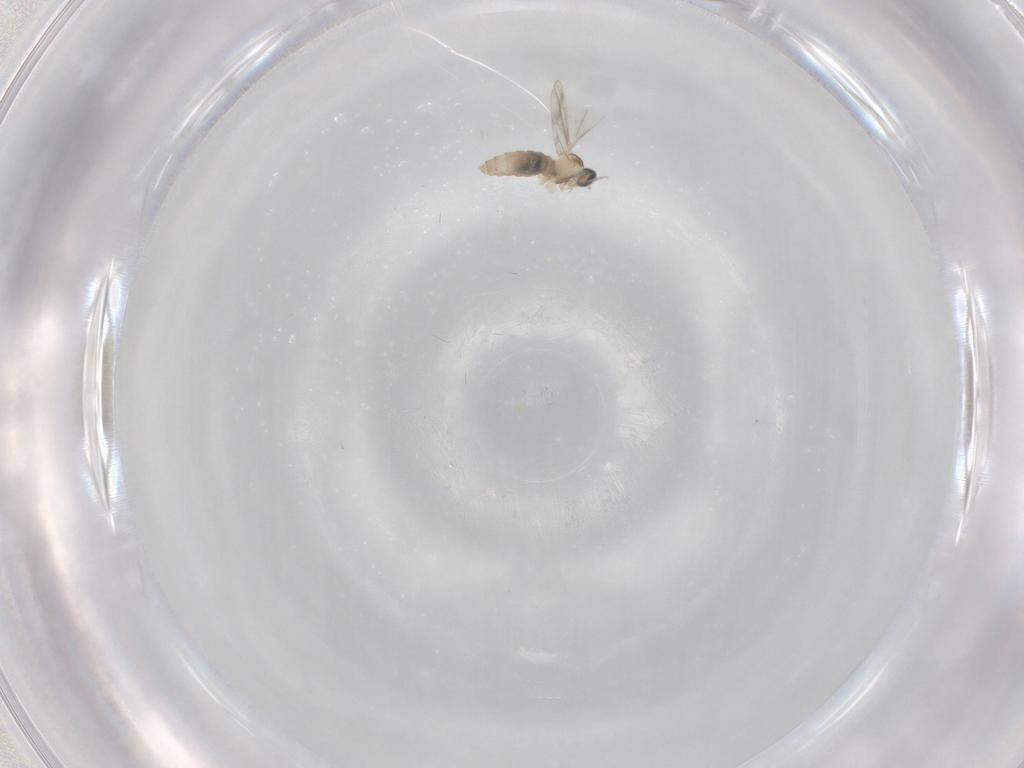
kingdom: Animalia
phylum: Arthropoda
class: Insecta
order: Diptera
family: Cecidomyiidae
